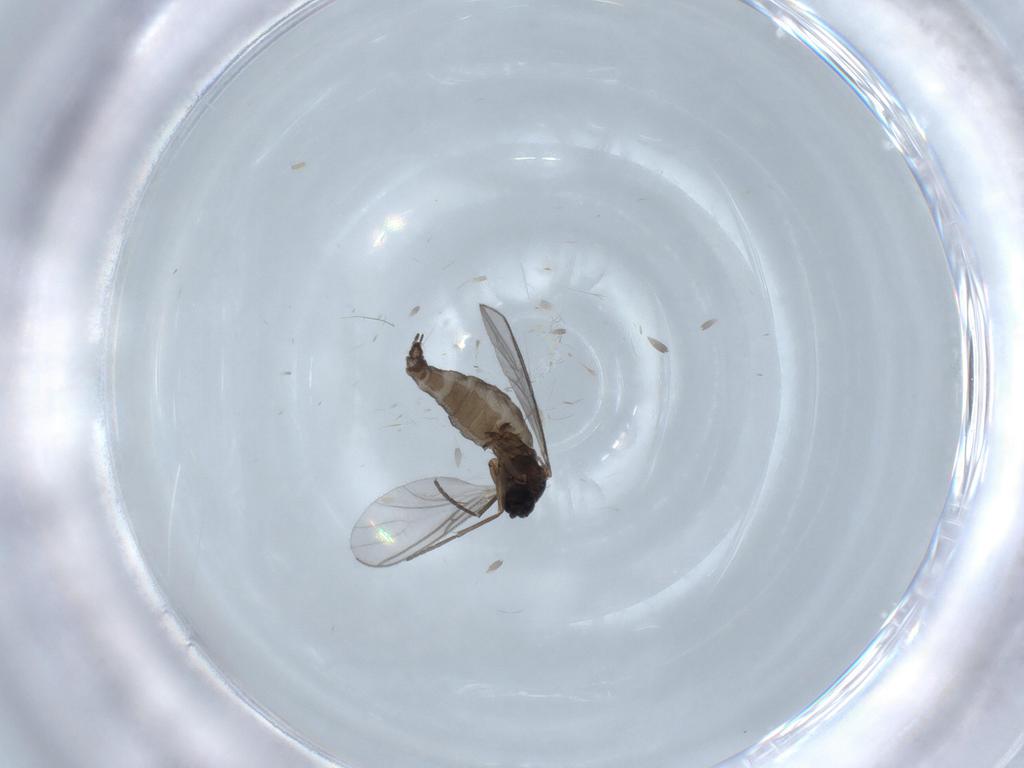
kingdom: Animalia
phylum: Arthropoda
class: Insecta
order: Diptera
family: Sciaridae
